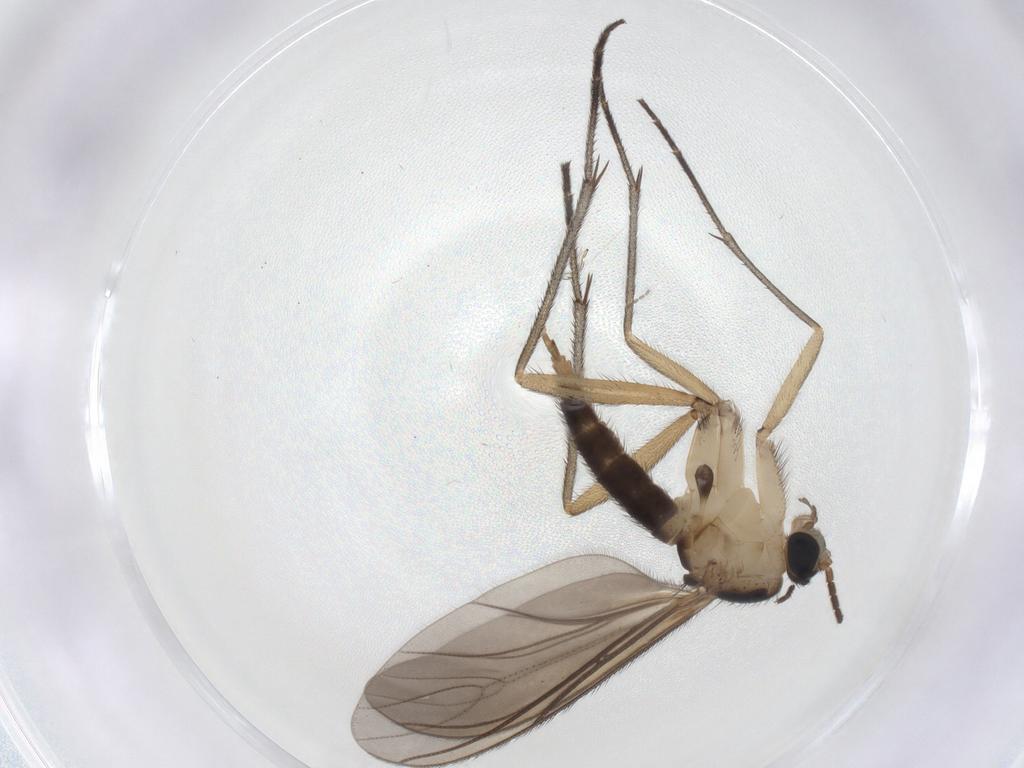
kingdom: Animalia
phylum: Arthropoda
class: Insecta
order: Diptera
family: Sciaridae
